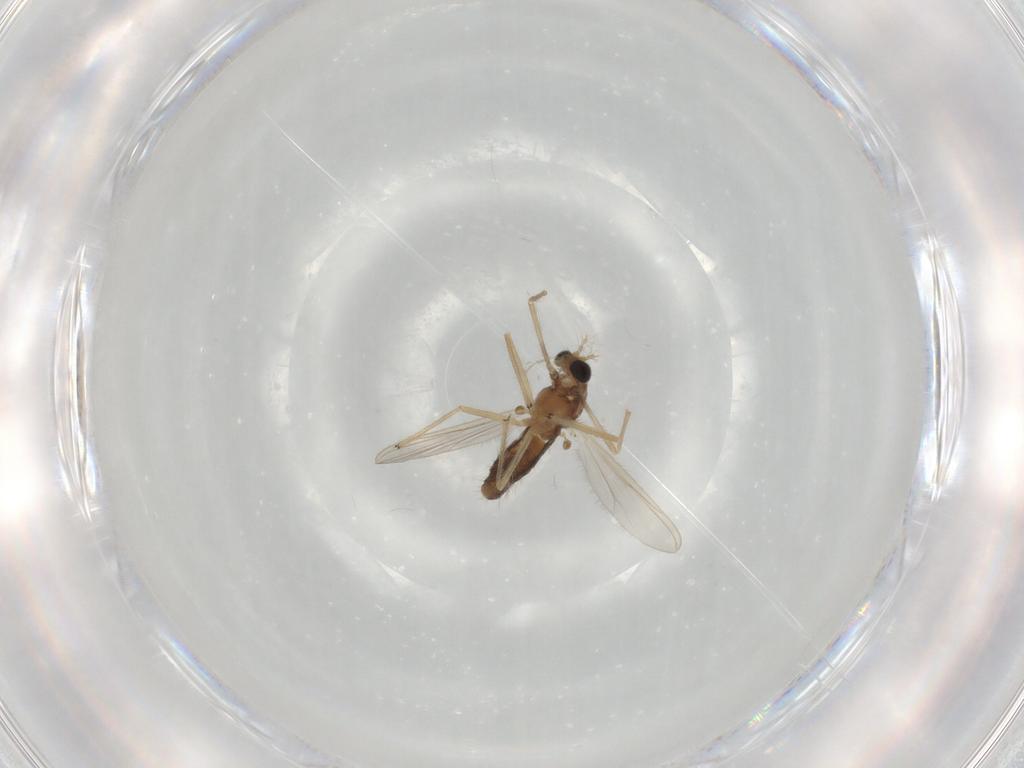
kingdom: Animalia
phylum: Arthropoda
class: Insecta
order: Diptera
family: Chironomidae
